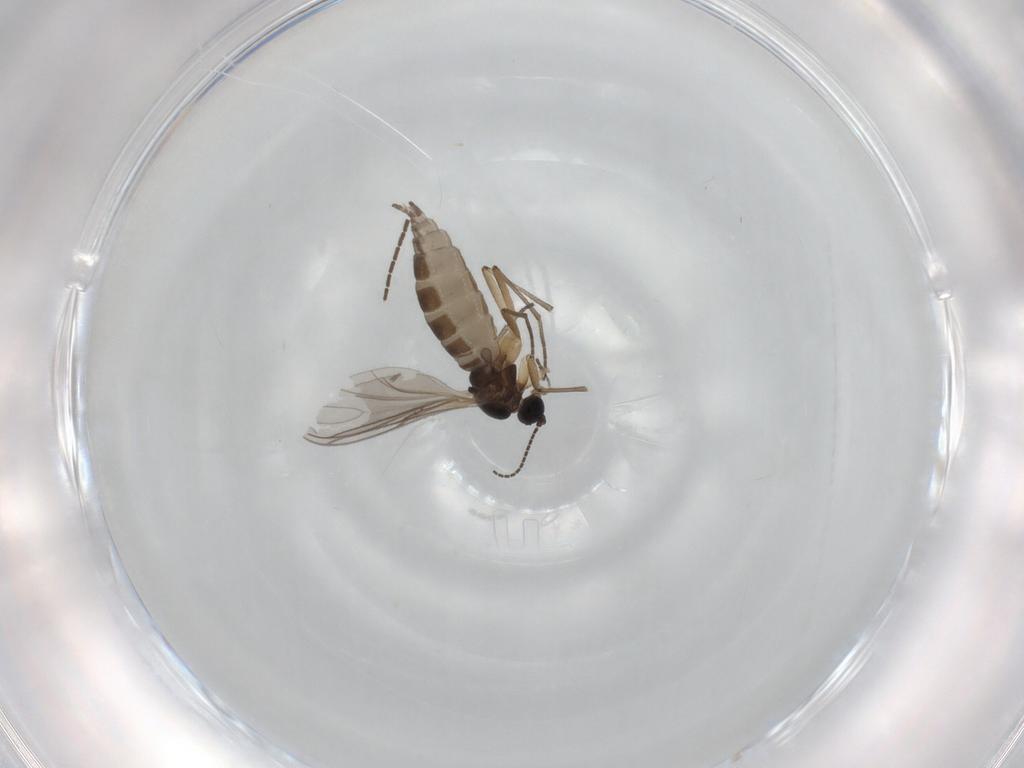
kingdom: Animalia
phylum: Arthropoda
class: Insecta
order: Diptera
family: Sciaridae
